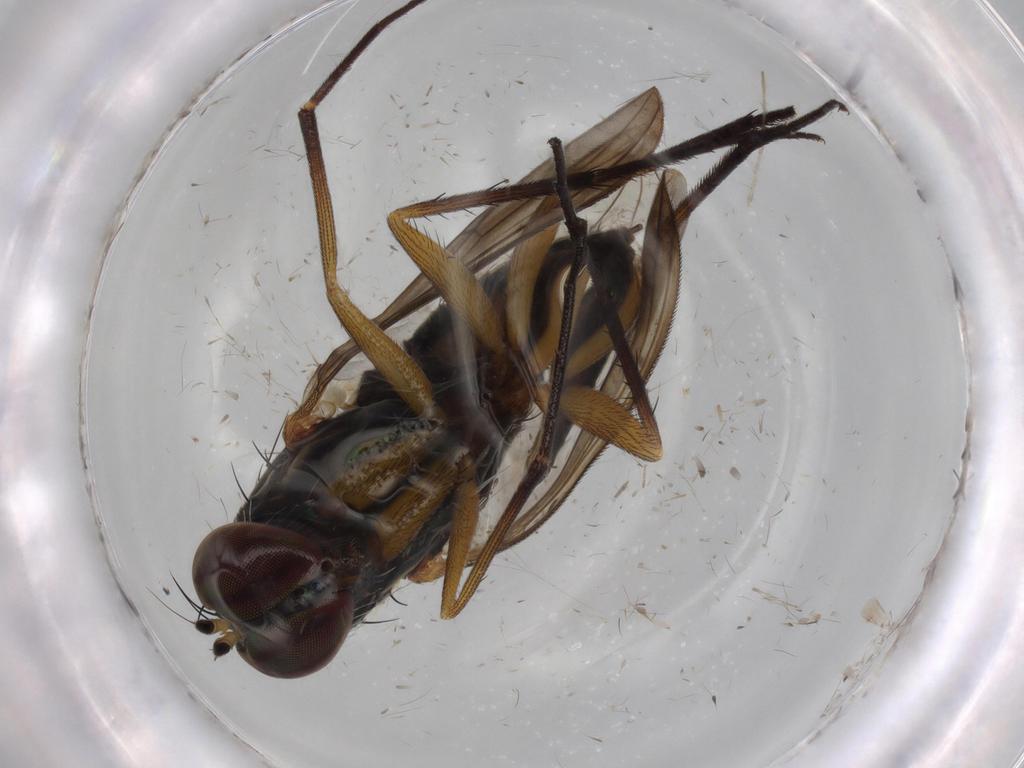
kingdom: Animalia
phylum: Arthropoda
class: Insecta
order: Diptera
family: Dolichopodidae
